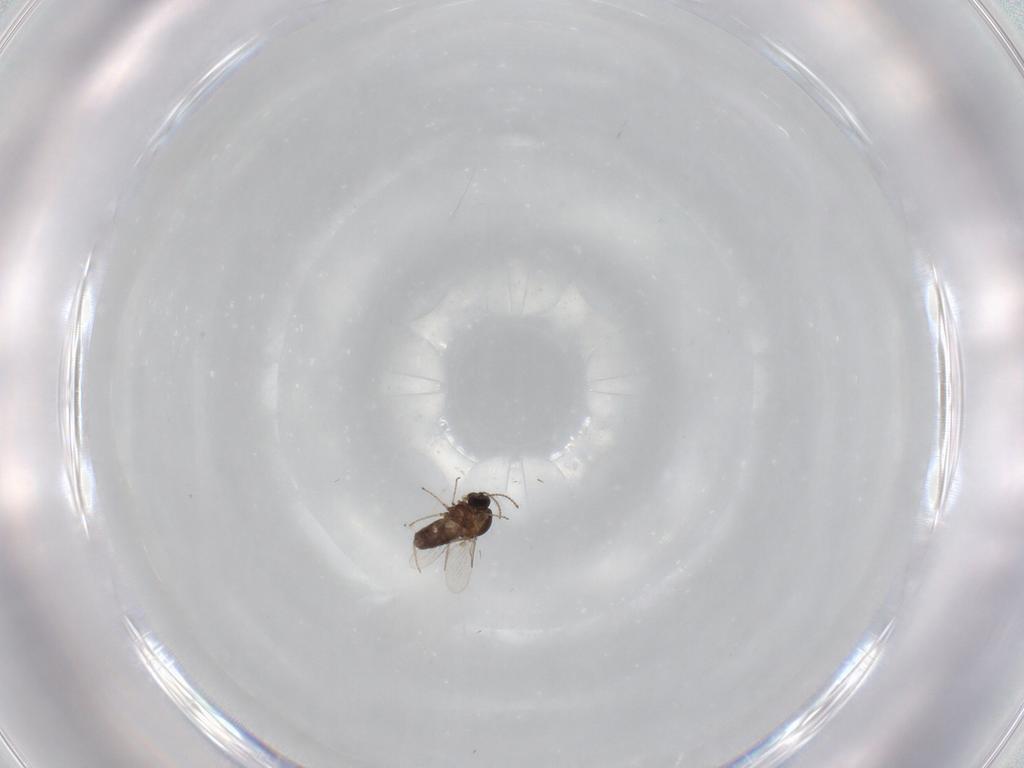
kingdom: Animalia
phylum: Arthropoda
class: Insecta
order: Diptera
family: Ceratopogonidae
